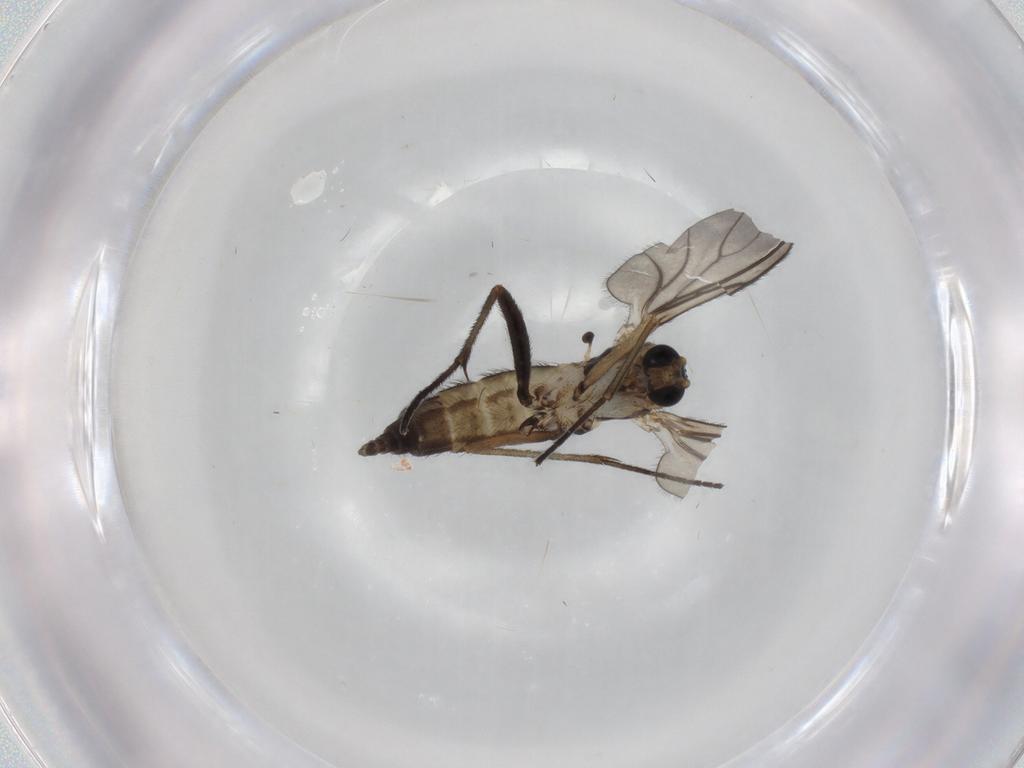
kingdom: Animalia
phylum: Arthropoda
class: Insecta
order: Diptera
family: Sciaridae
